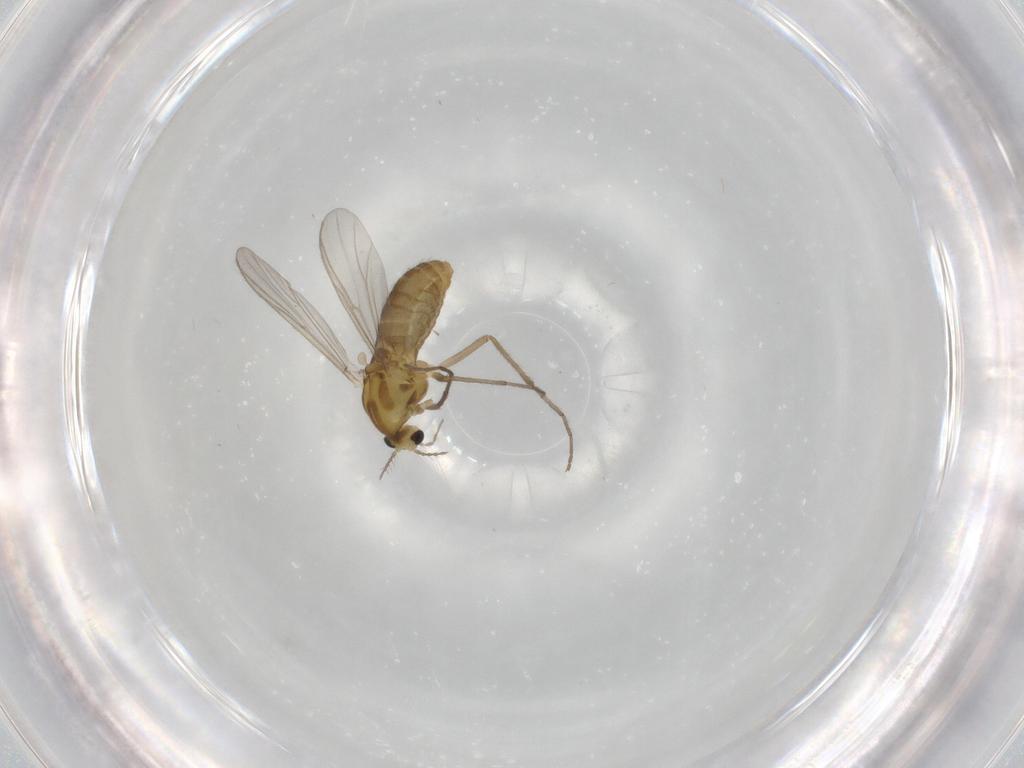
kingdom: Animalia
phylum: Arthropoda
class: Insecta
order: Diptera
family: Chironomidae
